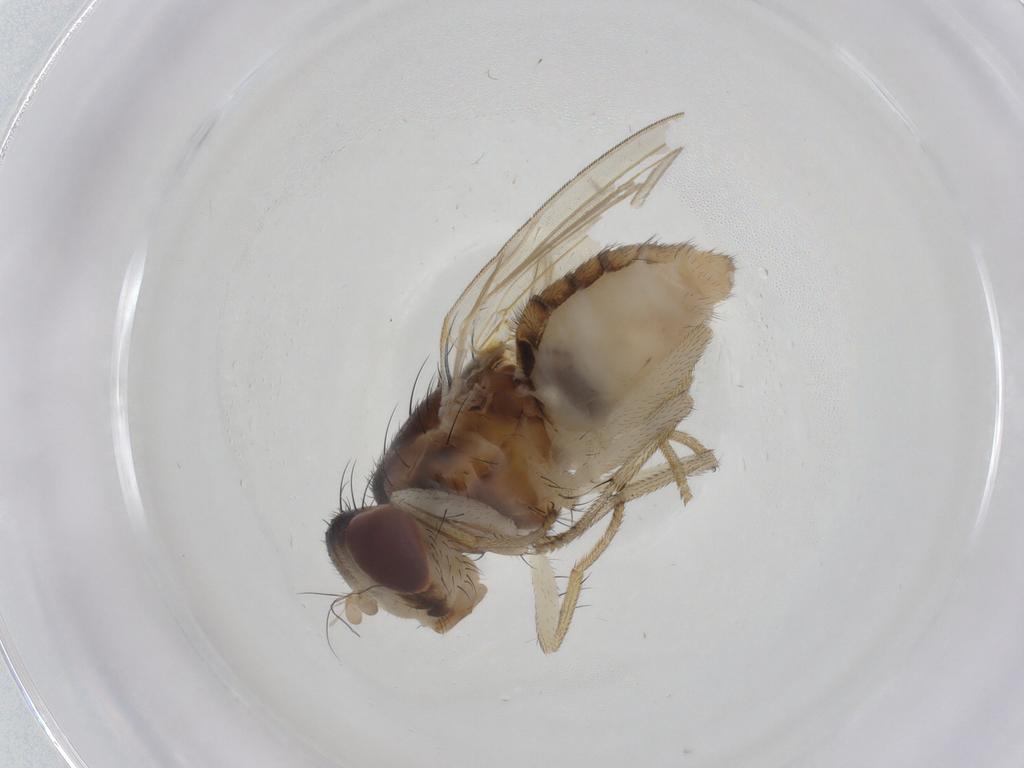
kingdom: Animalia
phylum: Arthropoda
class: Insecta
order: Diptera
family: Lauxaniidae
